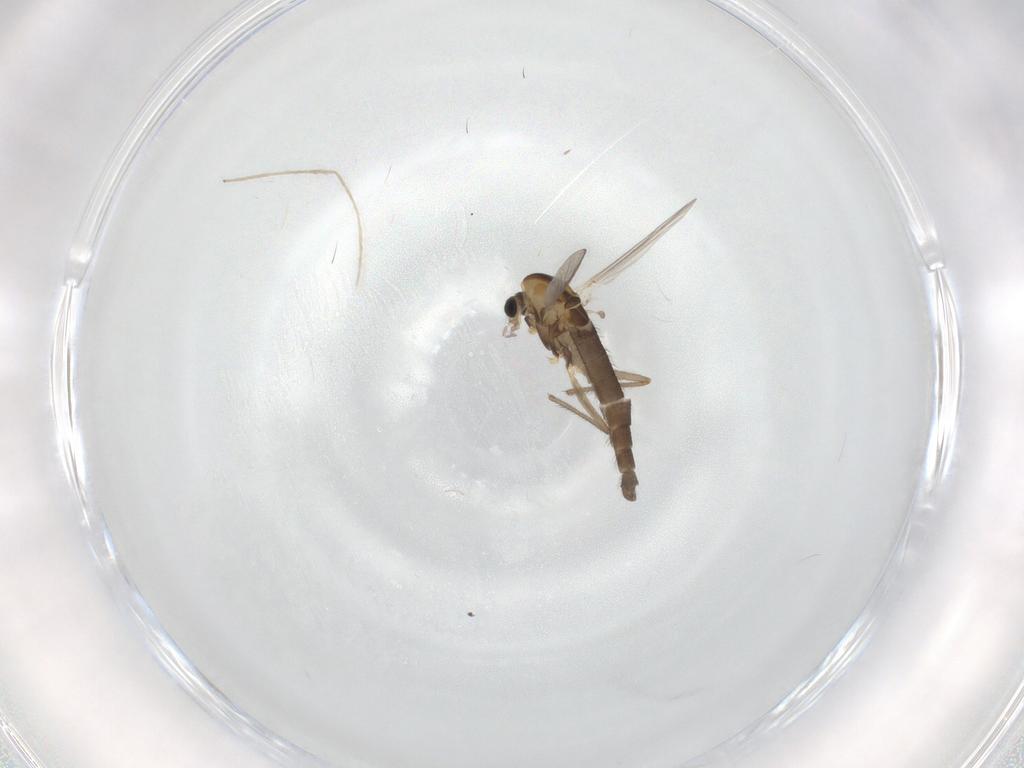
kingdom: Animalia
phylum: Arthropoda
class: Insecta
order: Diptera
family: Chironomidae
